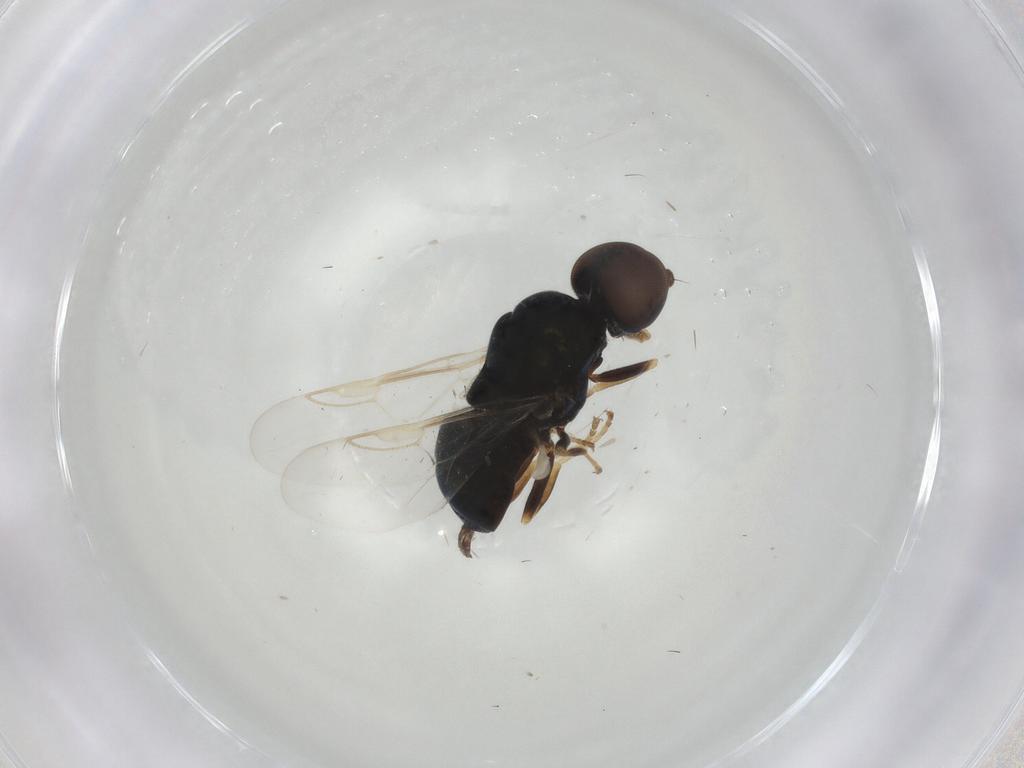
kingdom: Animalia
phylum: Arthropoda
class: Insecta
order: Diptera
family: Stratiomyidae
